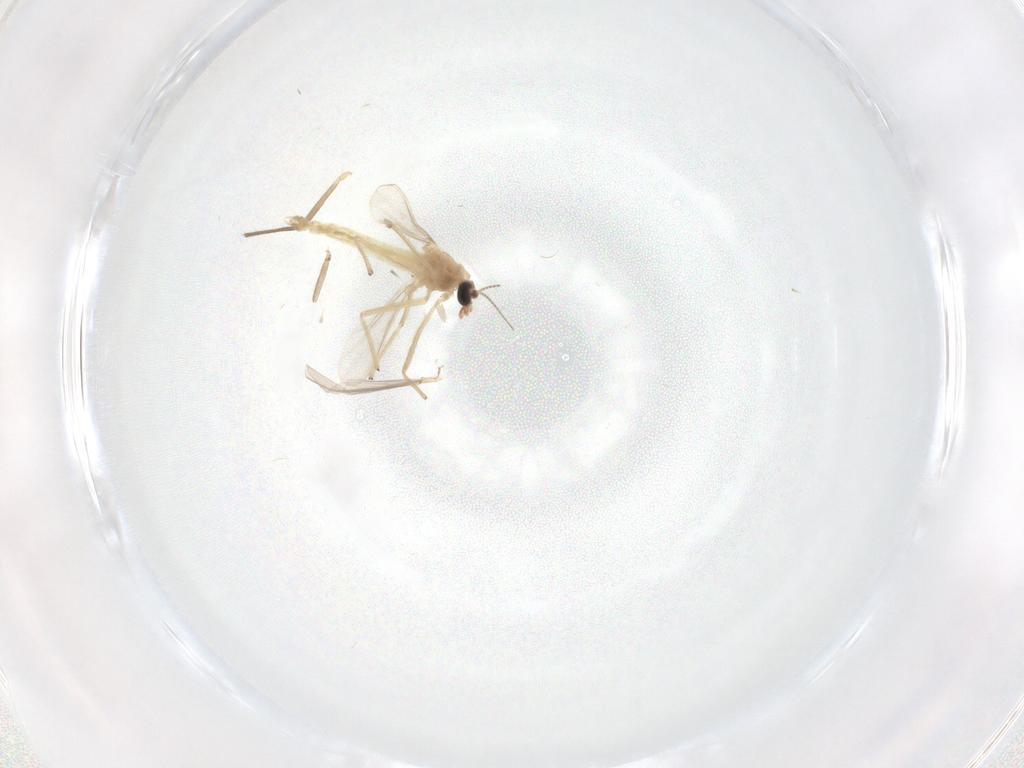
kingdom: Animalia
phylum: Arthropoda
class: Insecta
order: Diptera
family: Chironomidae
